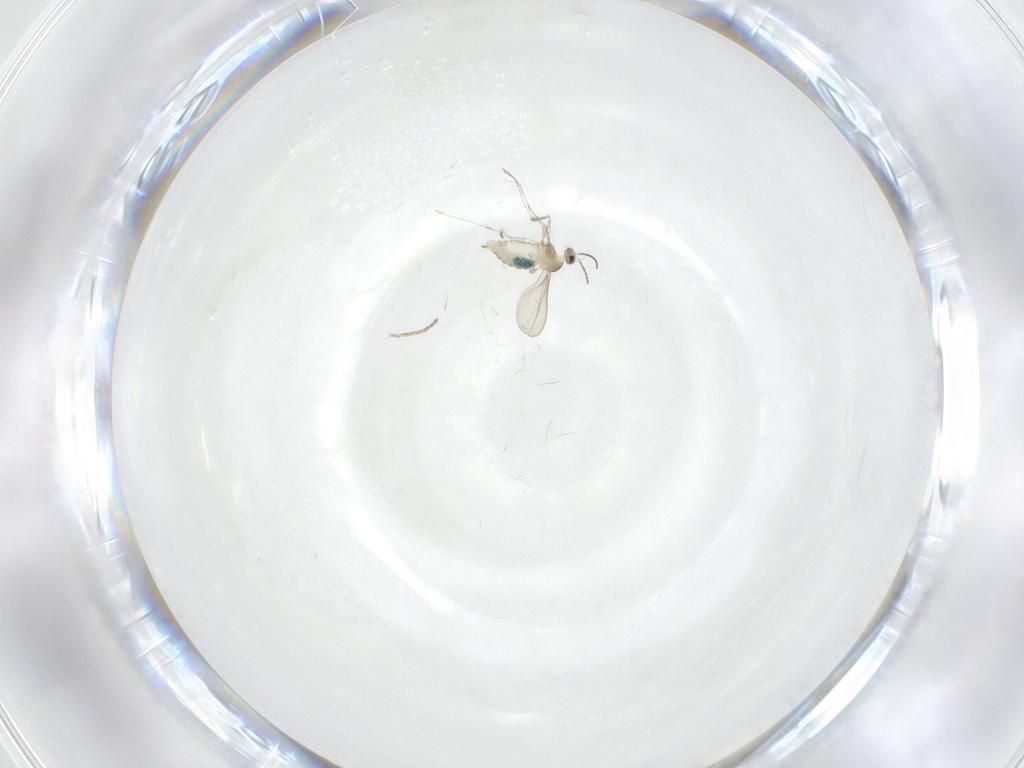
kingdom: Animalia
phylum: Arthropoda
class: Insecta
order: Diptera
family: Cecidomyiidae
